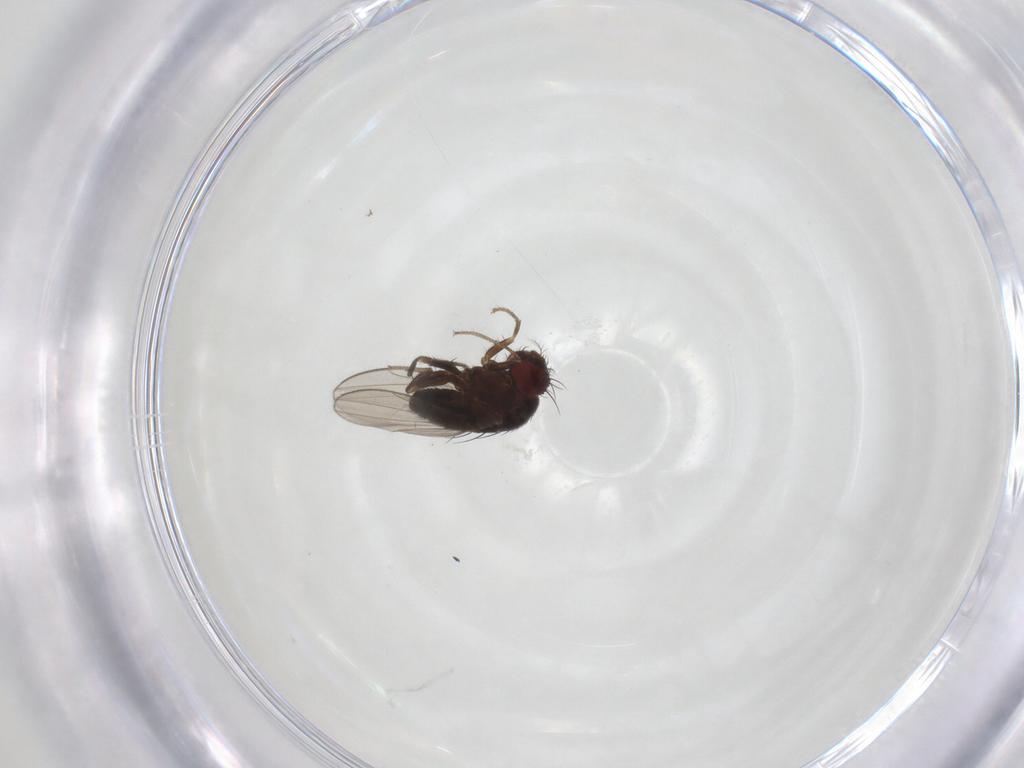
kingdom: Animalia
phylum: Arthropoda
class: Insecta
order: Diptera
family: Drosophilidae
